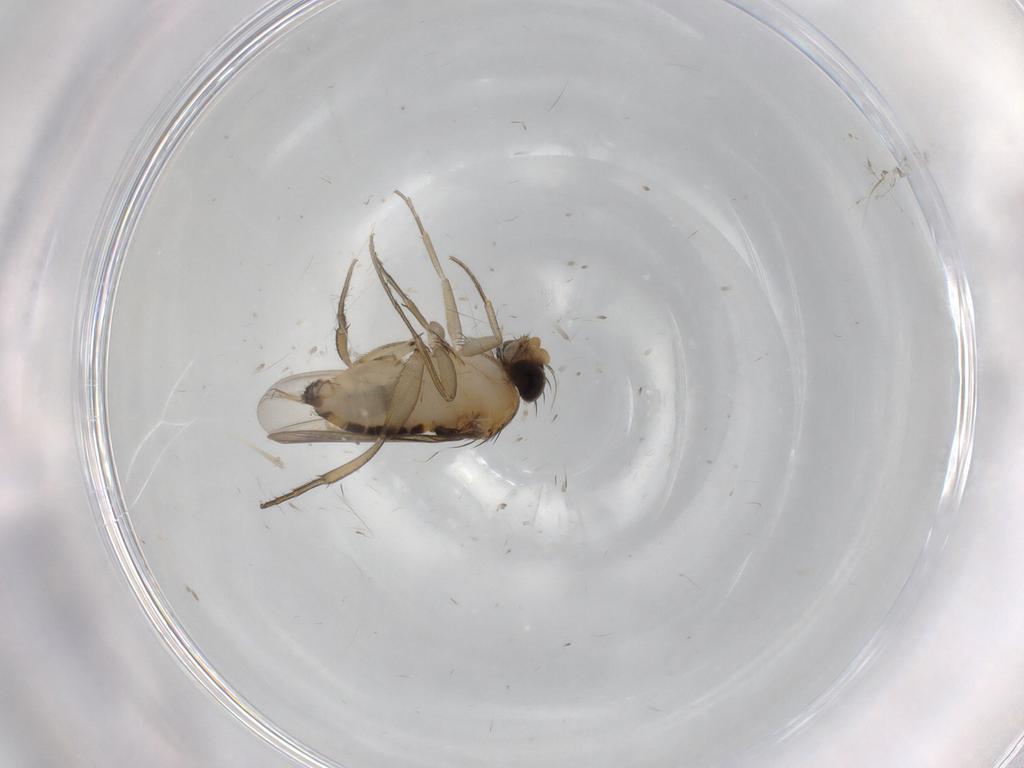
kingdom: Animalia
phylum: Arthropoda
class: Insecta
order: Diptera
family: Phoridae
